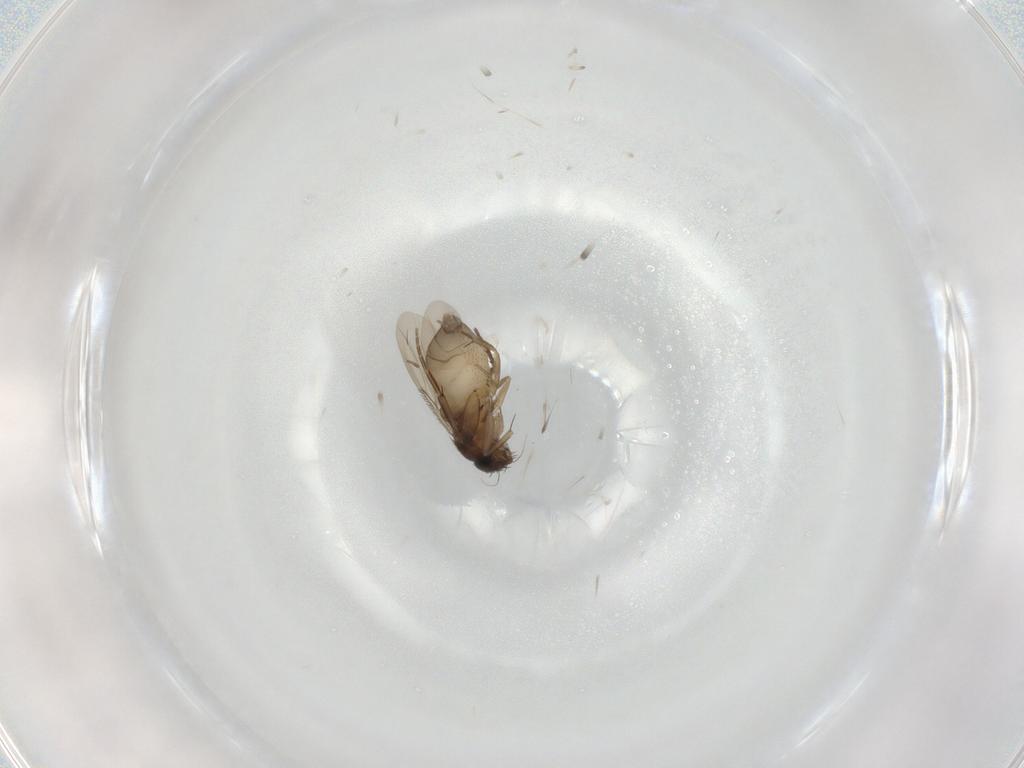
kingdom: Animalia
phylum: Arthropoda
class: Insecta
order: Diptera
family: Phoridae
